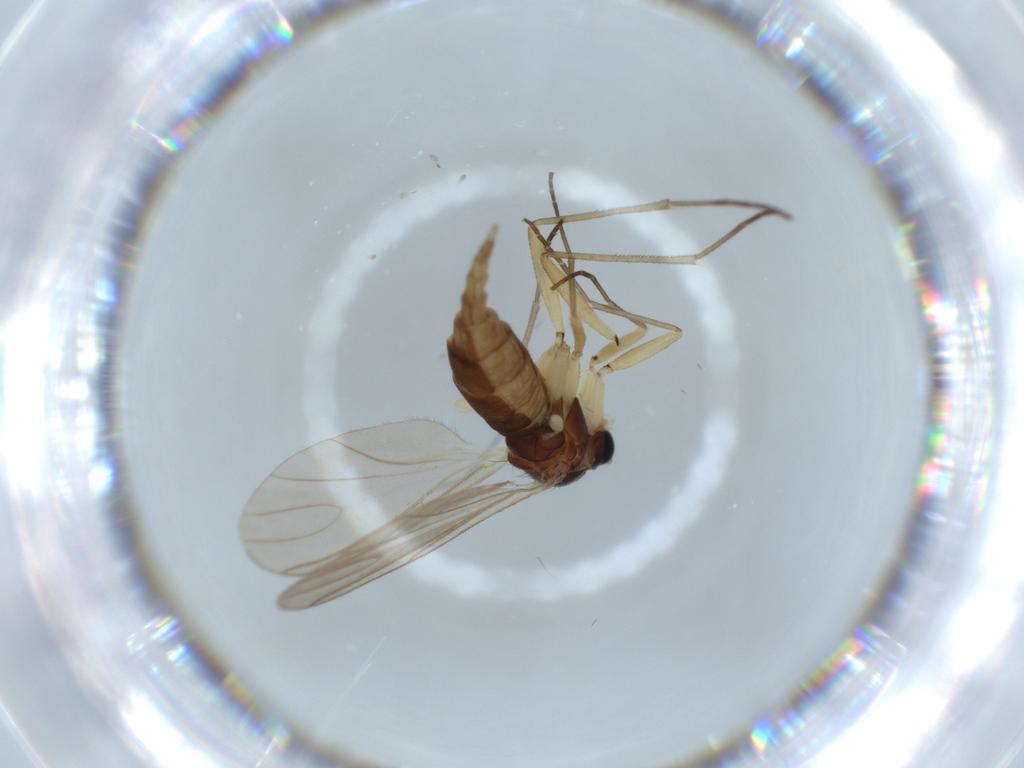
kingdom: Animalia
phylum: Arthropoda
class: Insecta
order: Diptera
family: Sciaridae
